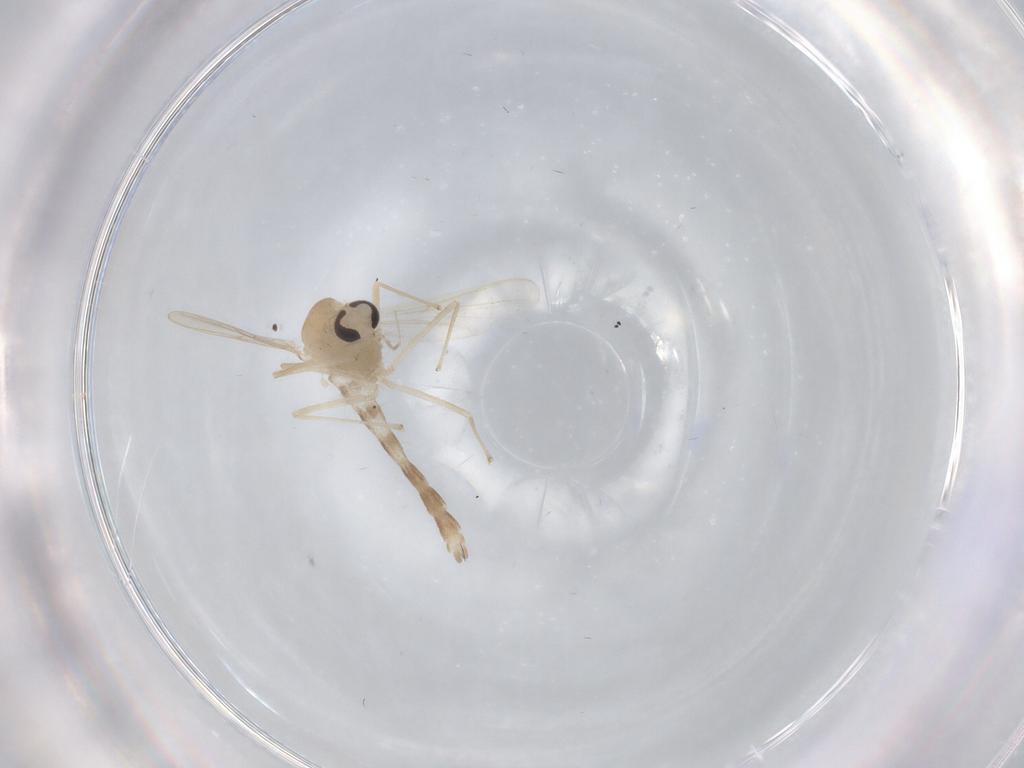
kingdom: Animalia
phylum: Arthropoda
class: Insecta
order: Diptera
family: Chironomidae
